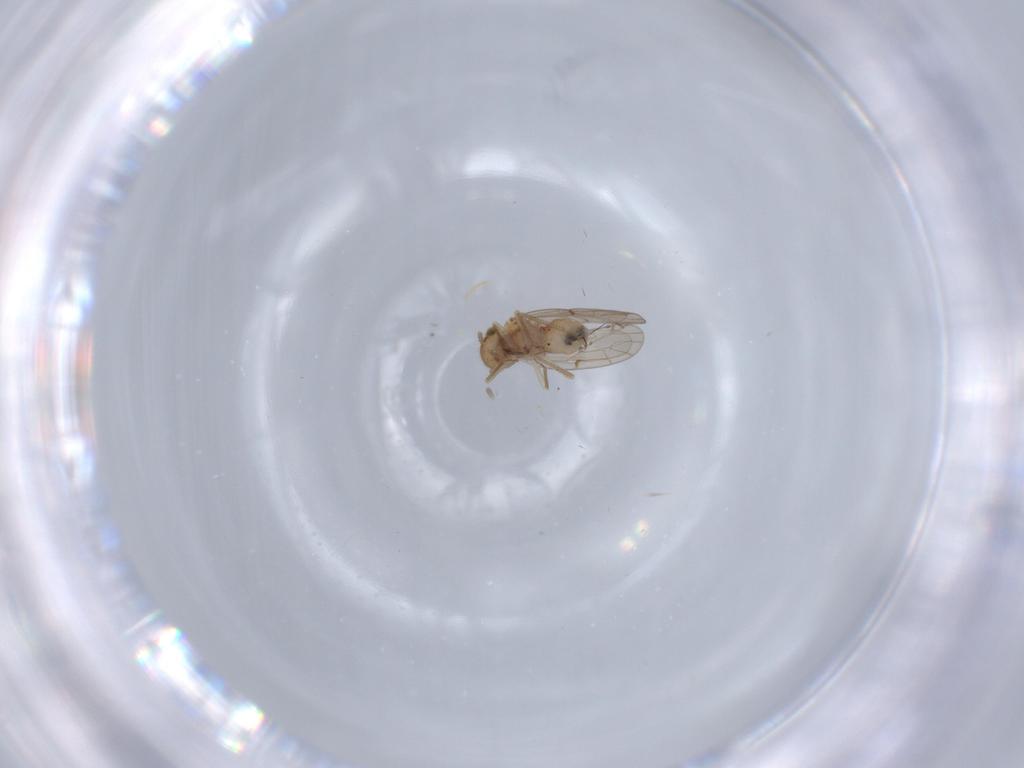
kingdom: Animalia
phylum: Arthropoda
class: Insecta
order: Psocodea
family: Ectopsocidae
